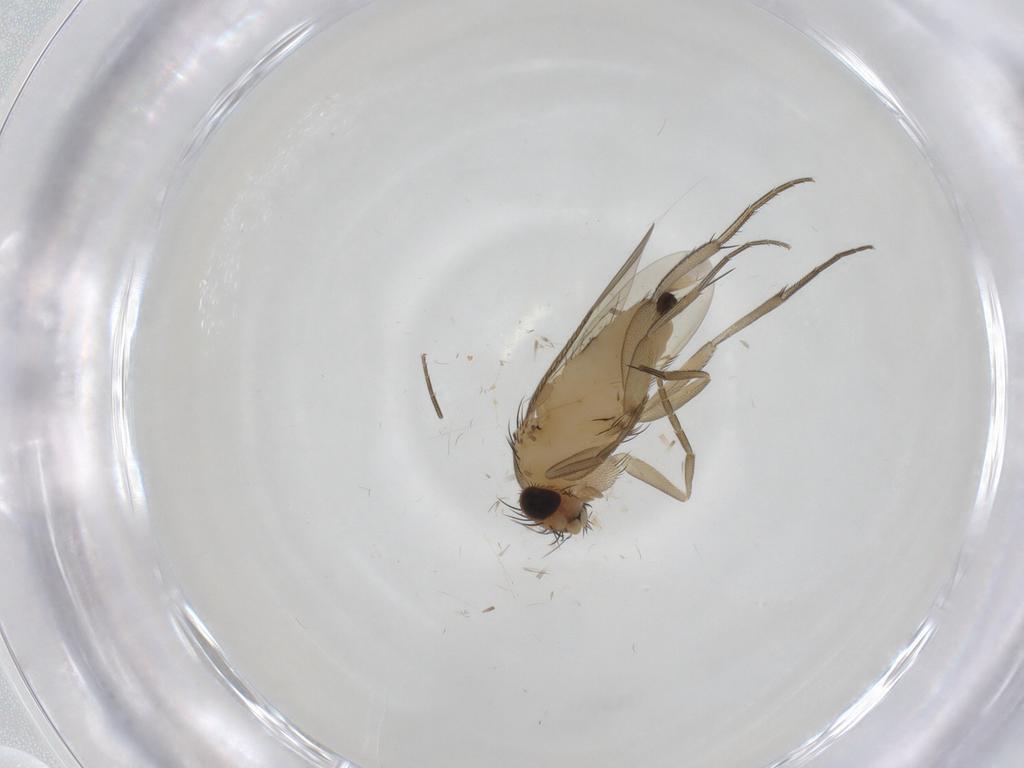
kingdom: Animalia
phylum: Arthropoda
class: Insecta
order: Diptera
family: Phoridae
